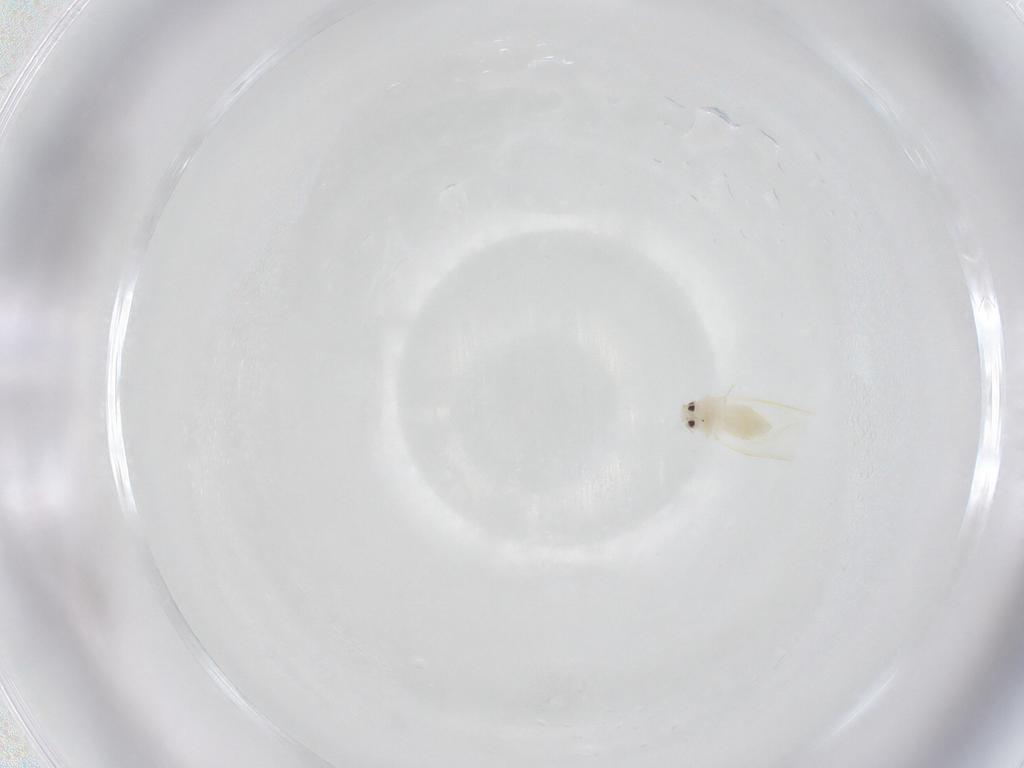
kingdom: Animalia
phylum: Arthropoda
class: Insecta
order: Hemiptera
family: Aleyrodidae
